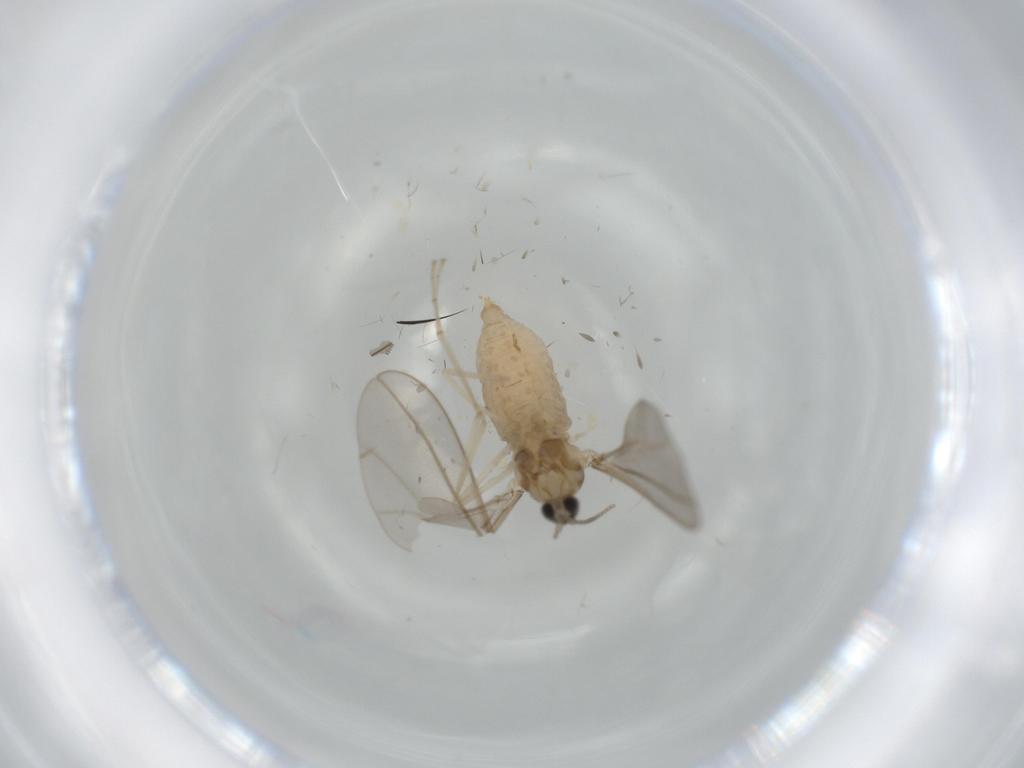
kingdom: Animalia
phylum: Arthropoda
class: Insecta
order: Diptera
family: Cecidomyiidae
